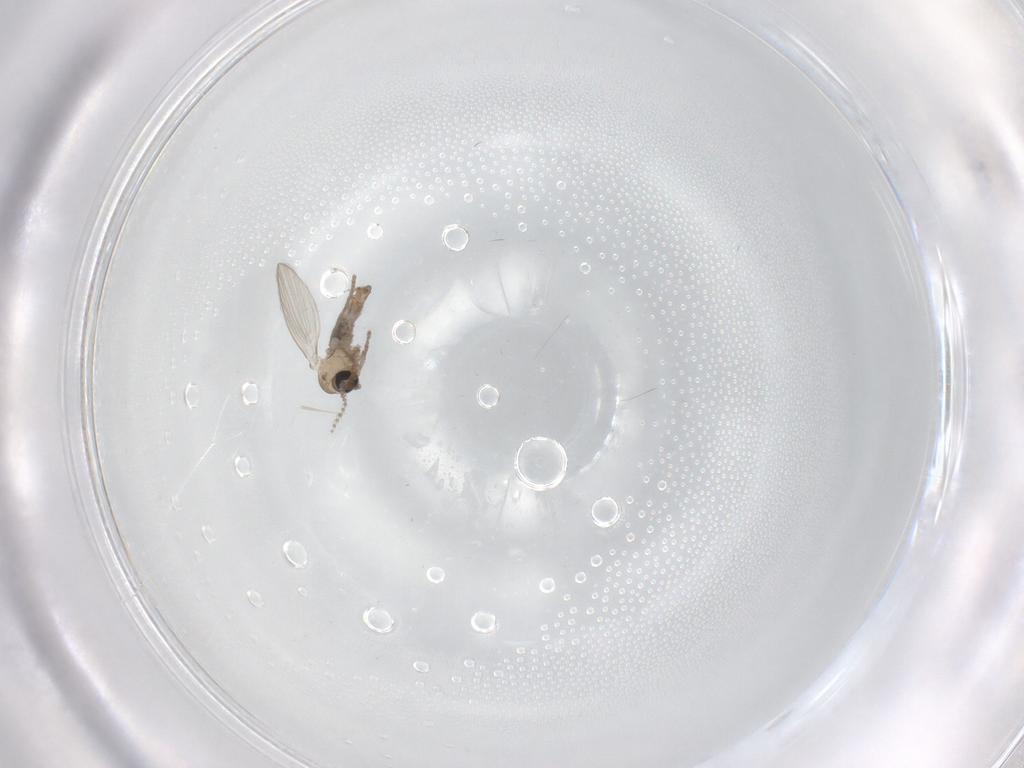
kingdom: Animalia
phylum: Arthropoda
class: Insecta
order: Diptera
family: Psychodidae
